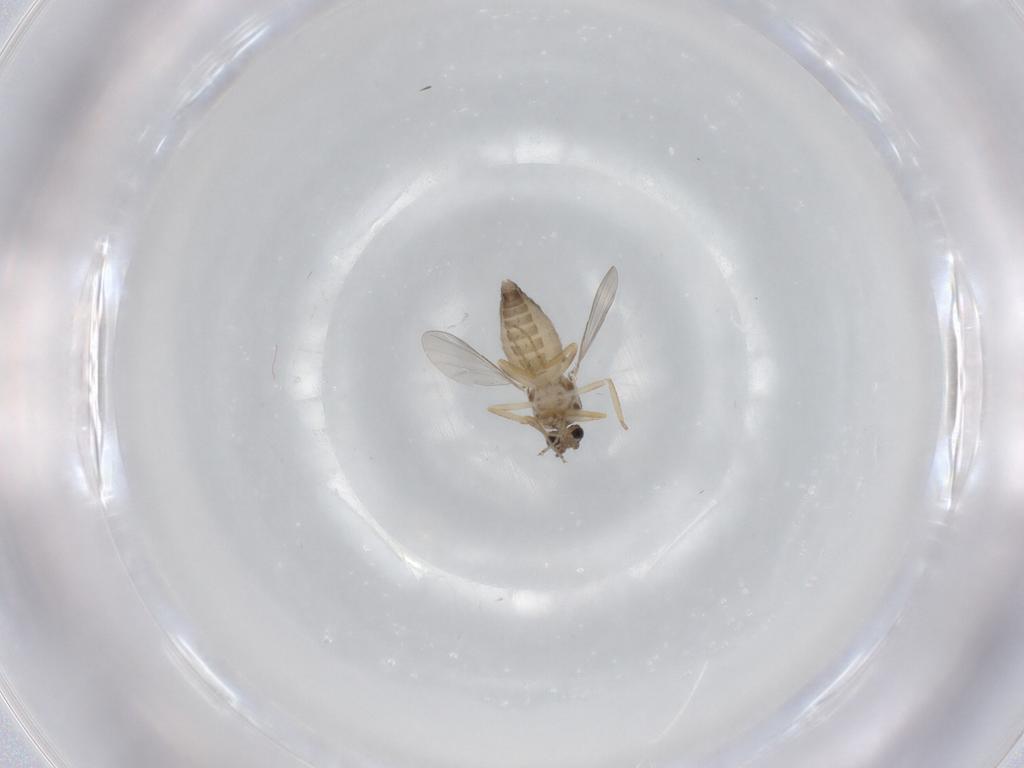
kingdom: Animalia
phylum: Arthropoda
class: Insecta
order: Diptera
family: Ceratopogonidae
